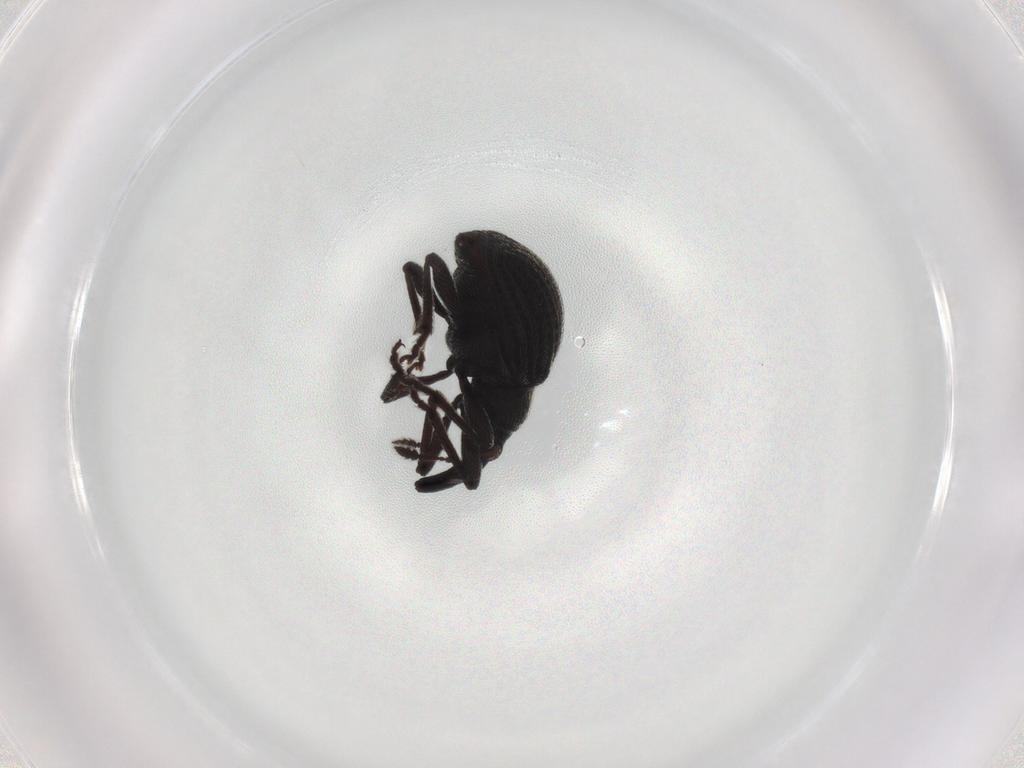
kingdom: Animalia
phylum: Arthropoda
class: Insecta
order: Coleoptera
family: Brentidae
